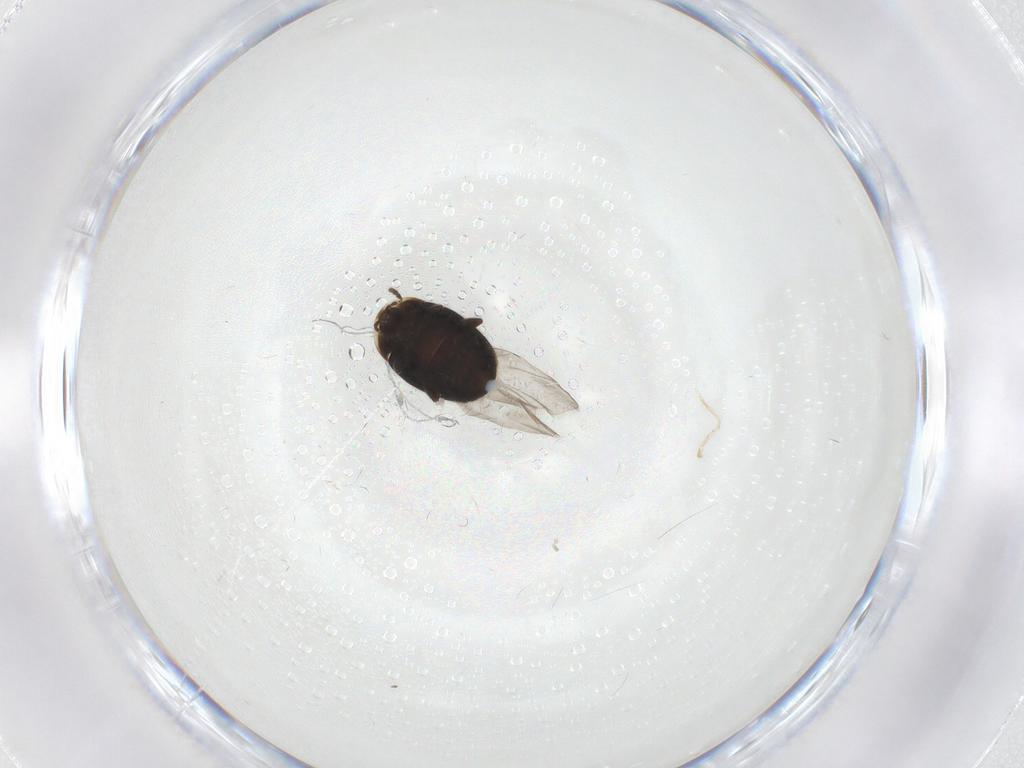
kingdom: Animalia
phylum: Arthropoda
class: Insecta
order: Coleoptera
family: Corylophidae
